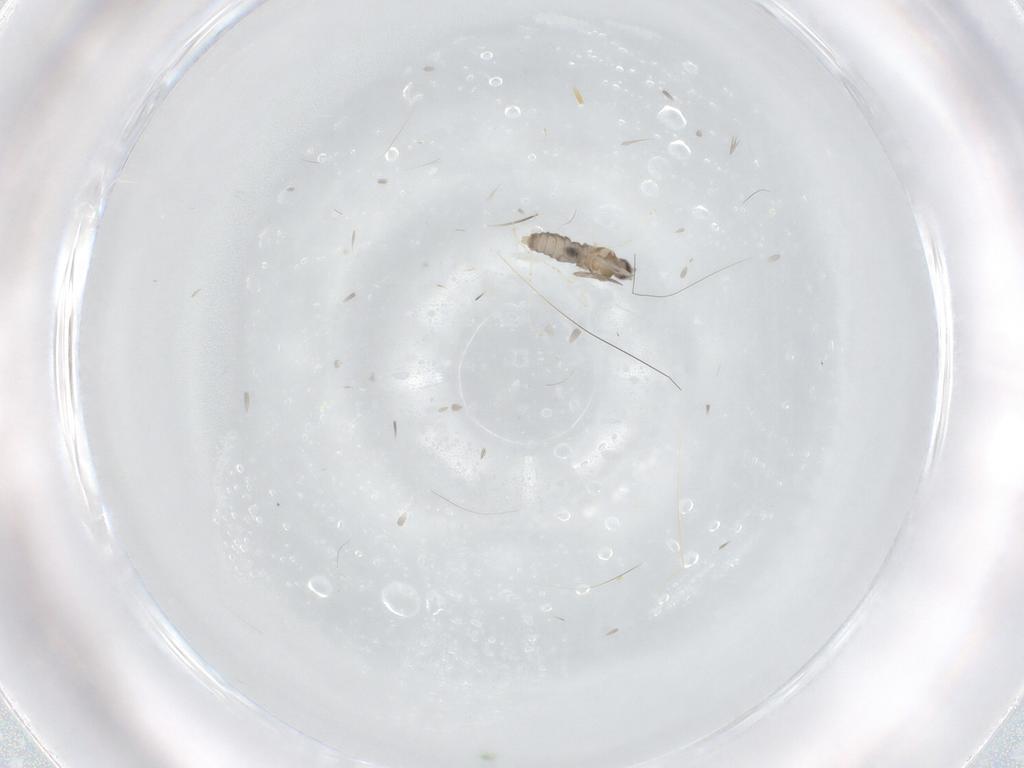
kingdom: Animalia
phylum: Arthropoda
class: Insecta
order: Diptera
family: Cecidomyiidae
